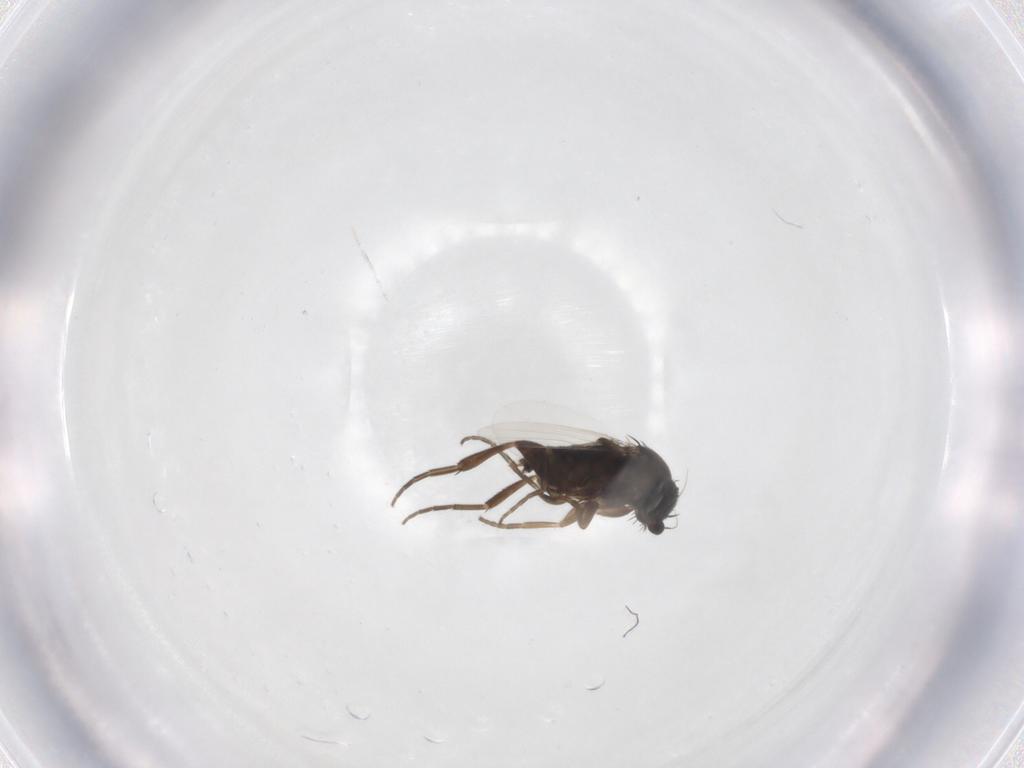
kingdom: Animalia
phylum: Arthropoda
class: Insecta
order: Diptera
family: Phoridae
